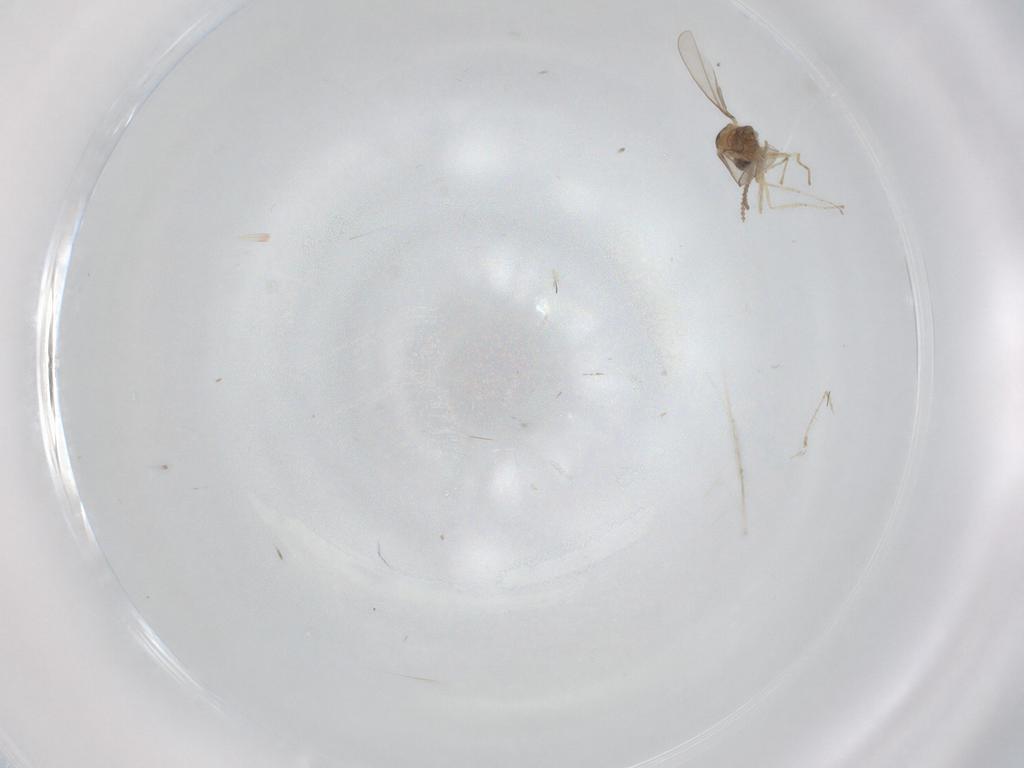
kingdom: Animalia
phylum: Arthropoda
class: Insecta
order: Diptera
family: Cecidomyiidae
